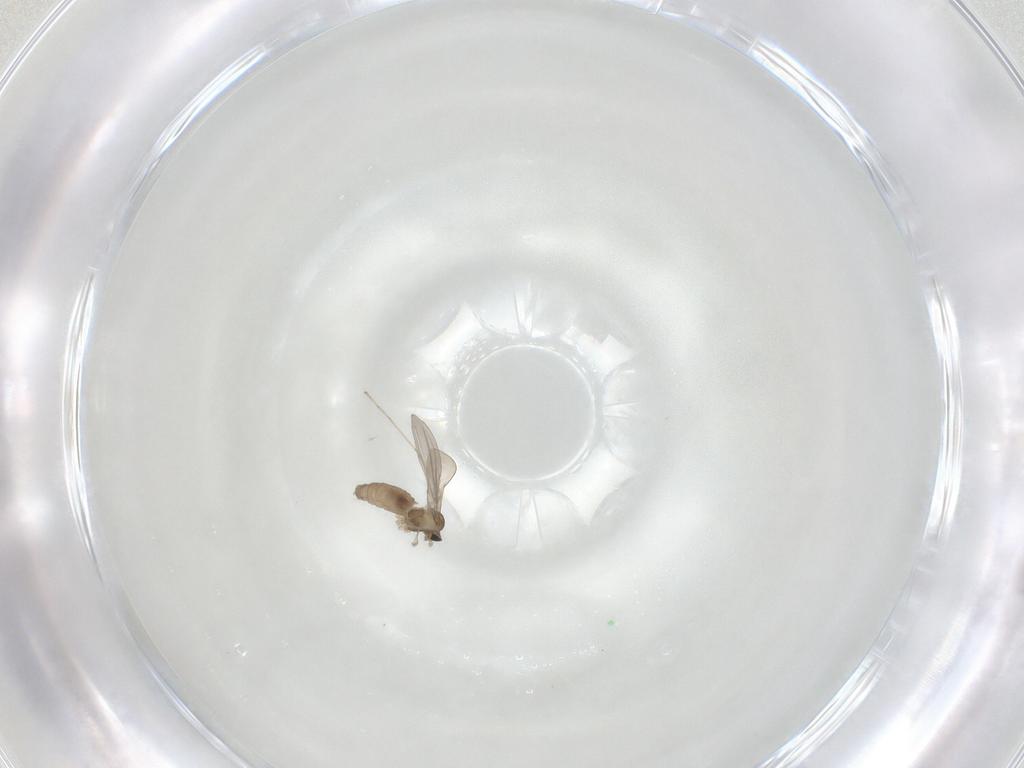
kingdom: Animalia
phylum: Arthropoda
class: Insecta
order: Diptera
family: Cecidomyiidae
